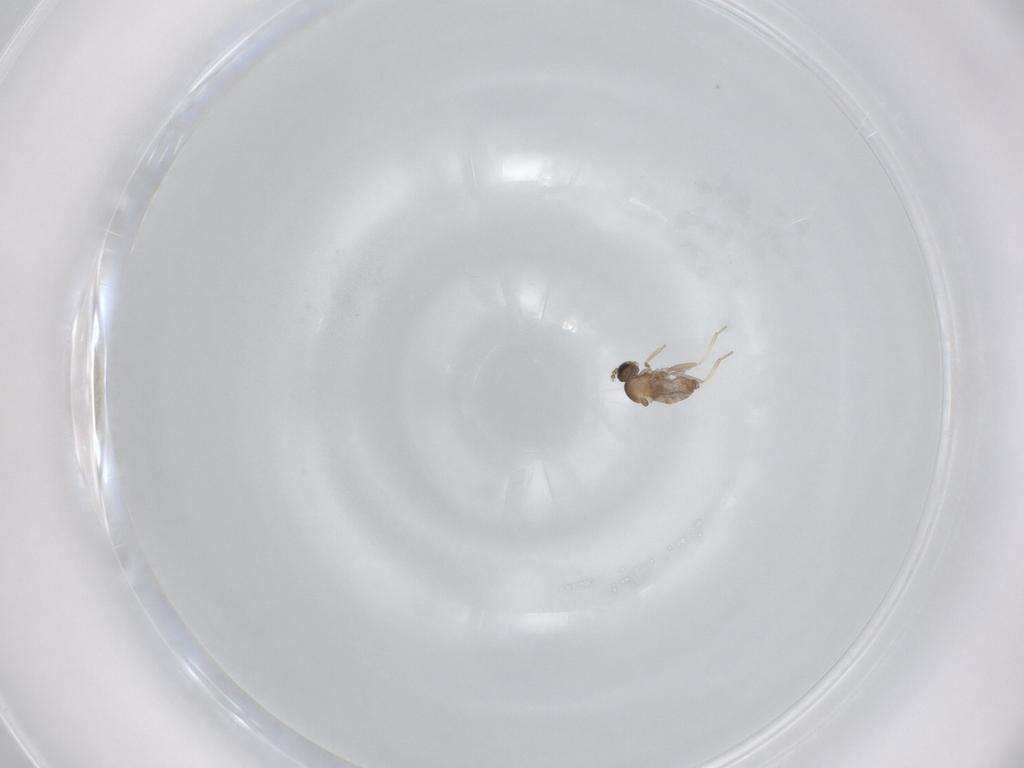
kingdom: Animalia
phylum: Arthropoda
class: Insecta
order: Diptera
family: Cecidomyiidae
